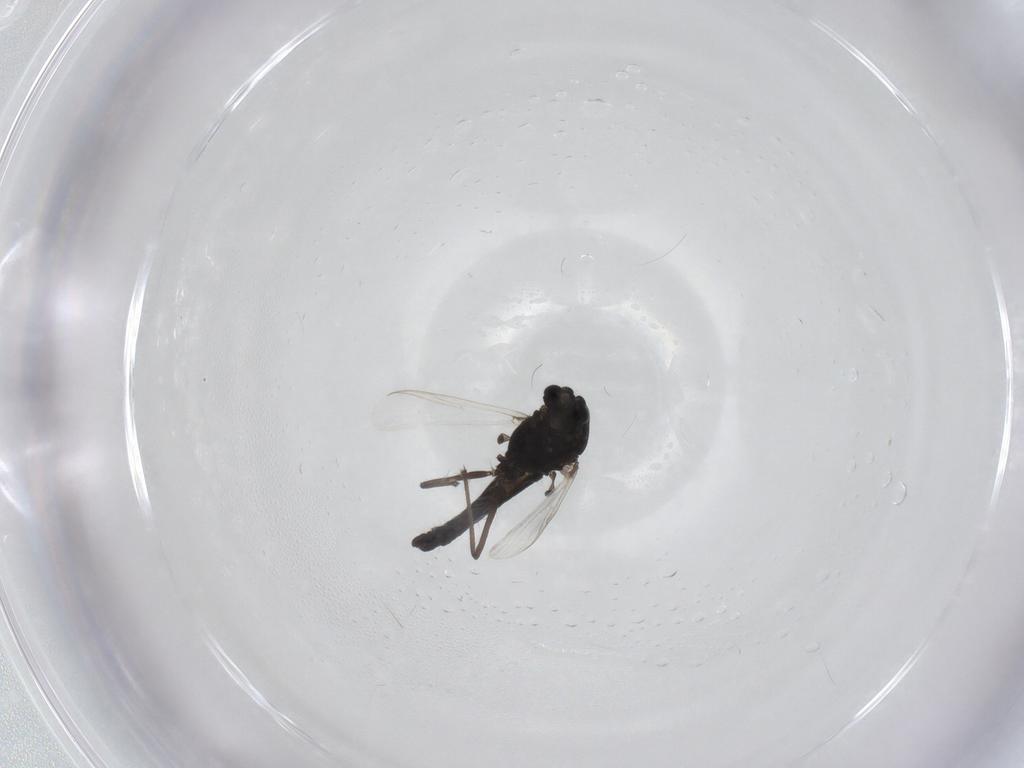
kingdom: Animalia
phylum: Arthropoda
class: Insecta
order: Diptera
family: Chironomidae
